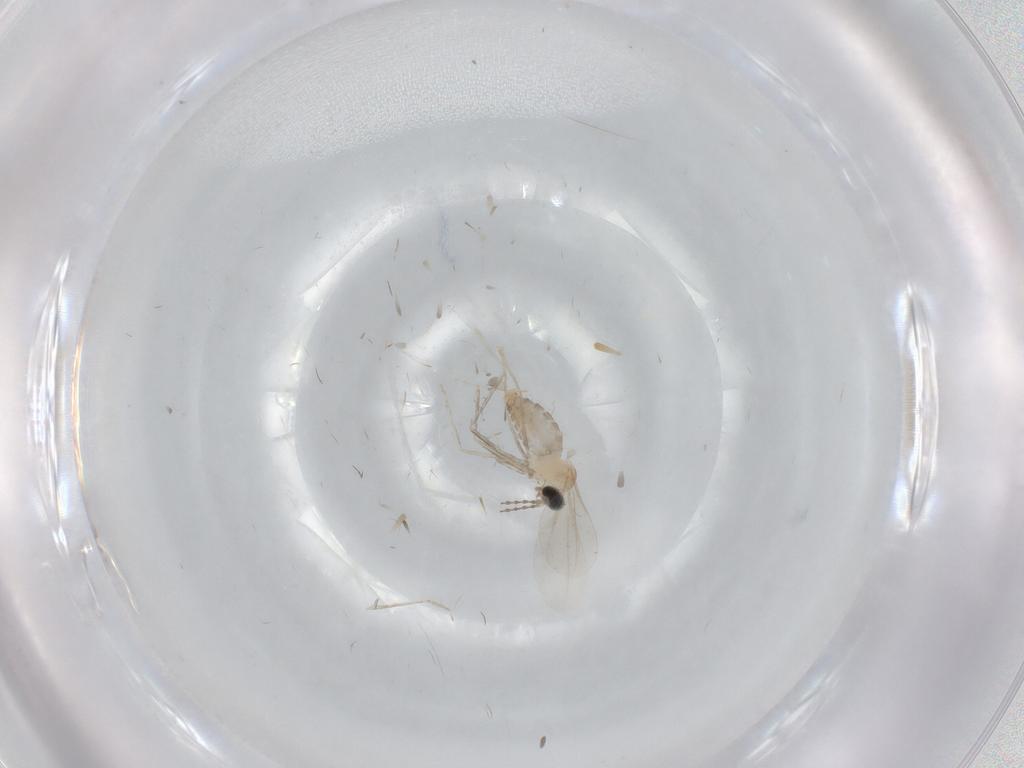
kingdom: Animalia
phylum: Arthropoda
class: Insecta
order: Diptera
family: Cecidomyiidae
